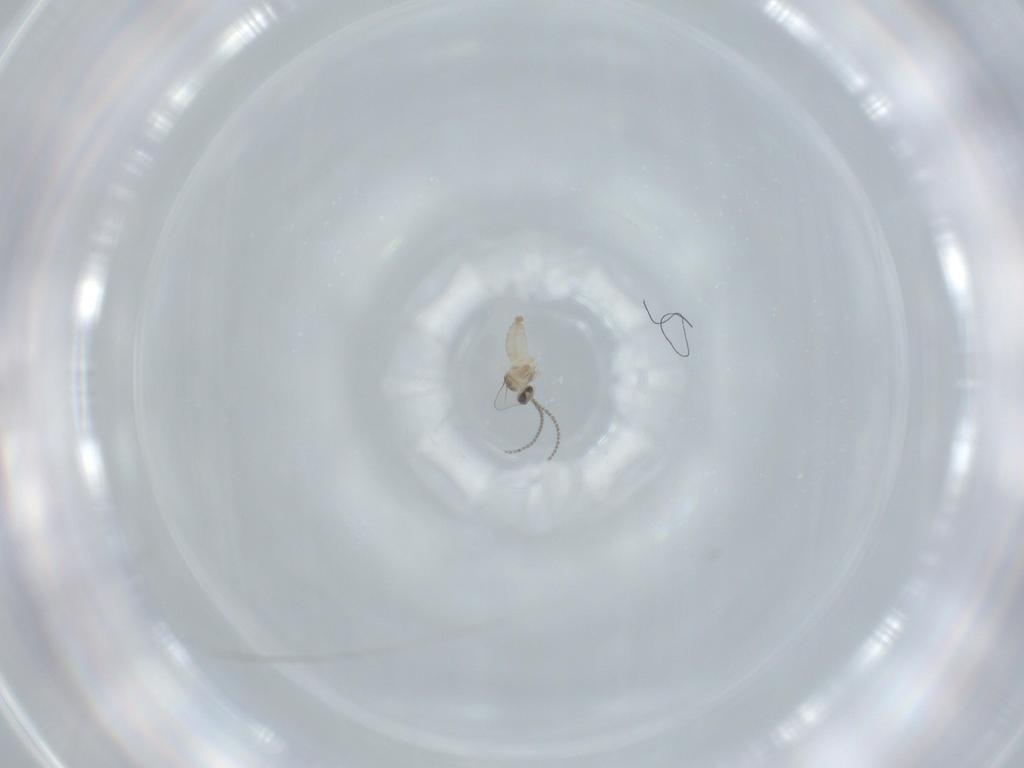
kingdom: Animalia
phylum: Arthropoda
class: Insecta
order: Diptera
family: Cecidomyiidae
